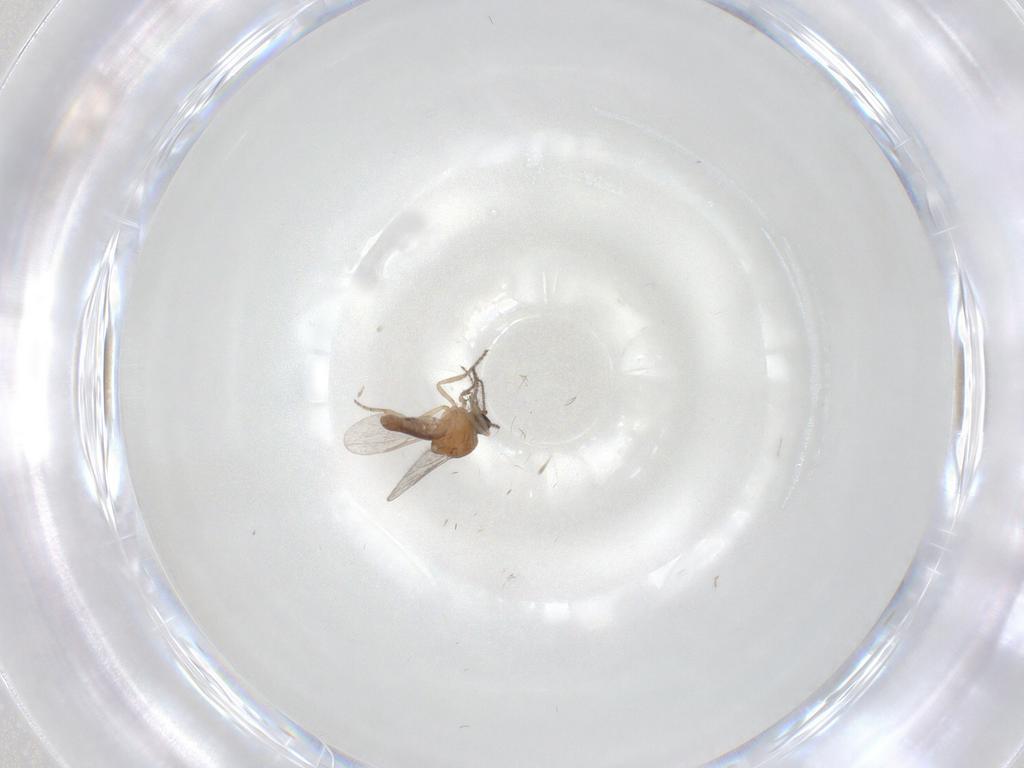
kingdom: Animalia
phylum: Arthropoda
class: Insecta
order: Diptera
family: Ceratopogonidae
